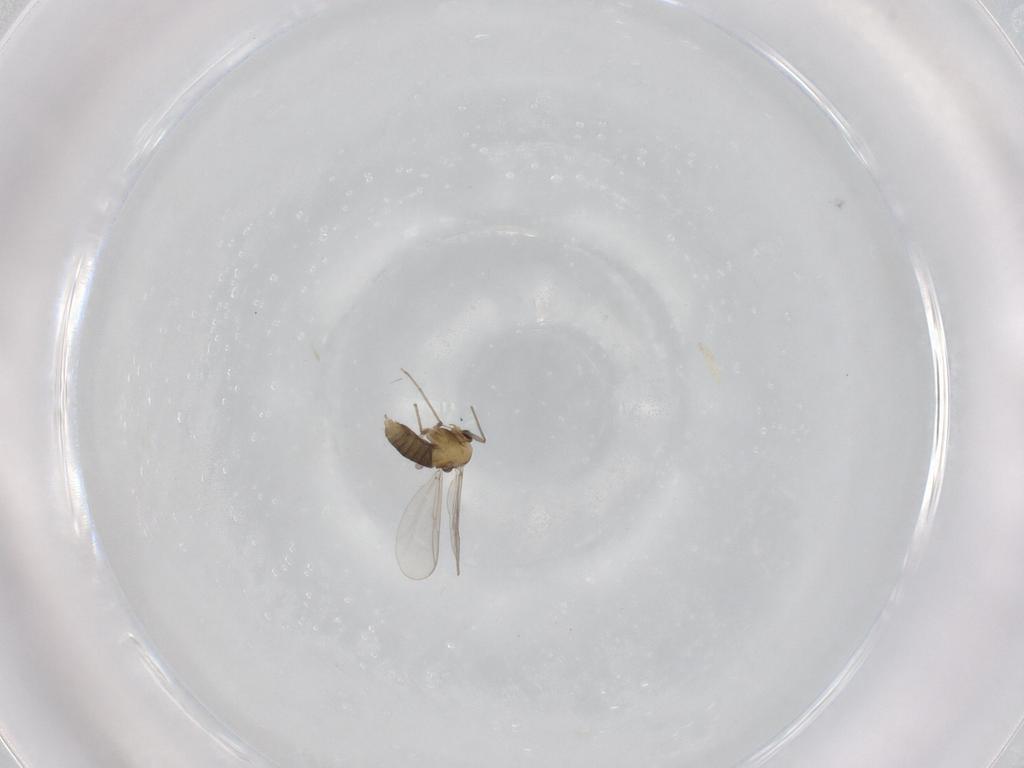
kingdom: Animalia
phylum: Arthropoda
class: Insecta
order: Diptera
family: Chironomidae
